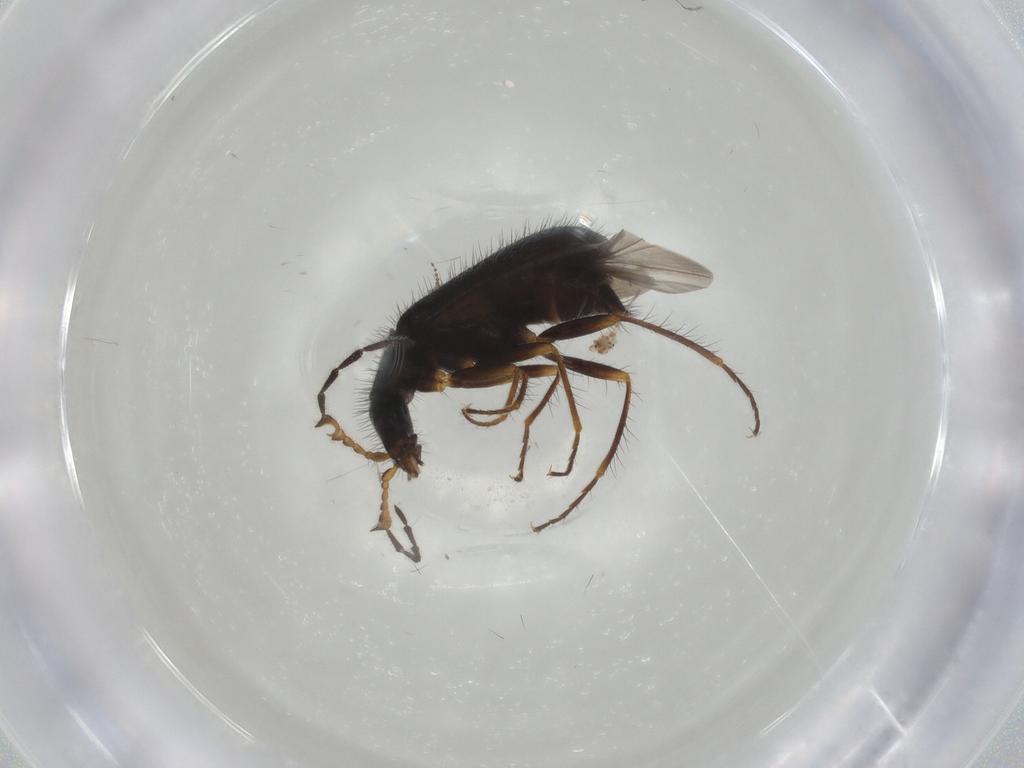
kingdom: Animalia
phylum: Arthropoda
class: Insecta
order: Coleoptera
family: Melyridae
